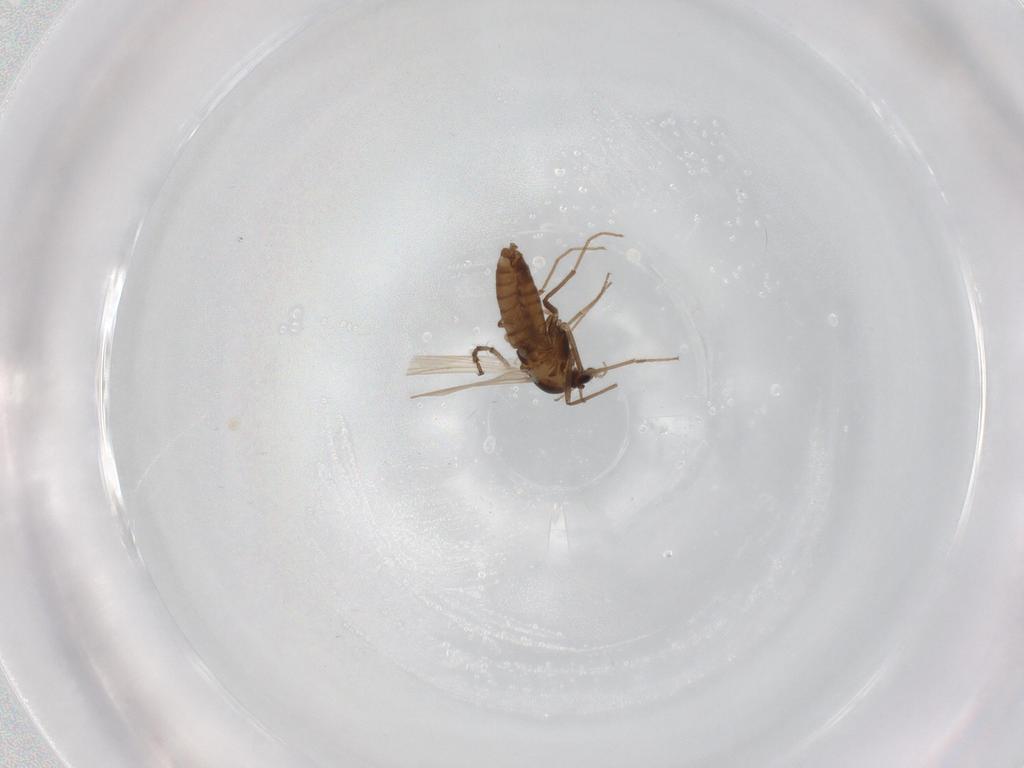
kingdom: Animalia
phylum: Arthropoda
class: Insecta
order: Diptera
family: Chironomidae
